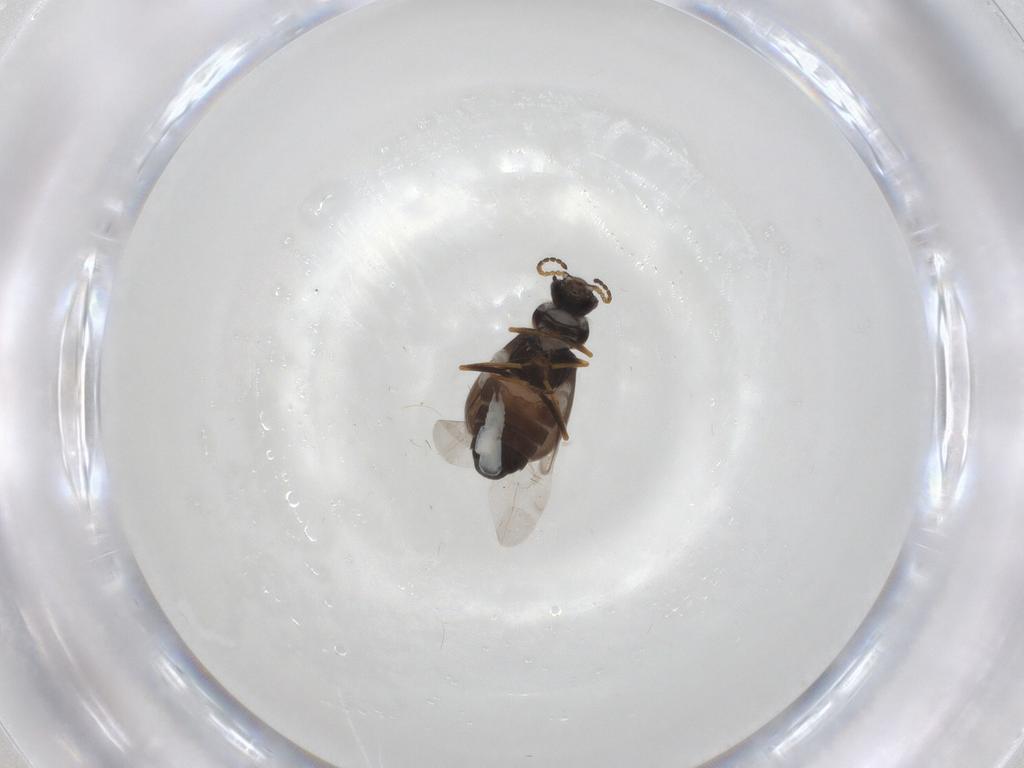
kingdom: Animalia
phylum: Arthropoda
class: Insecta
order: Coleoptera
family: Melyridae
